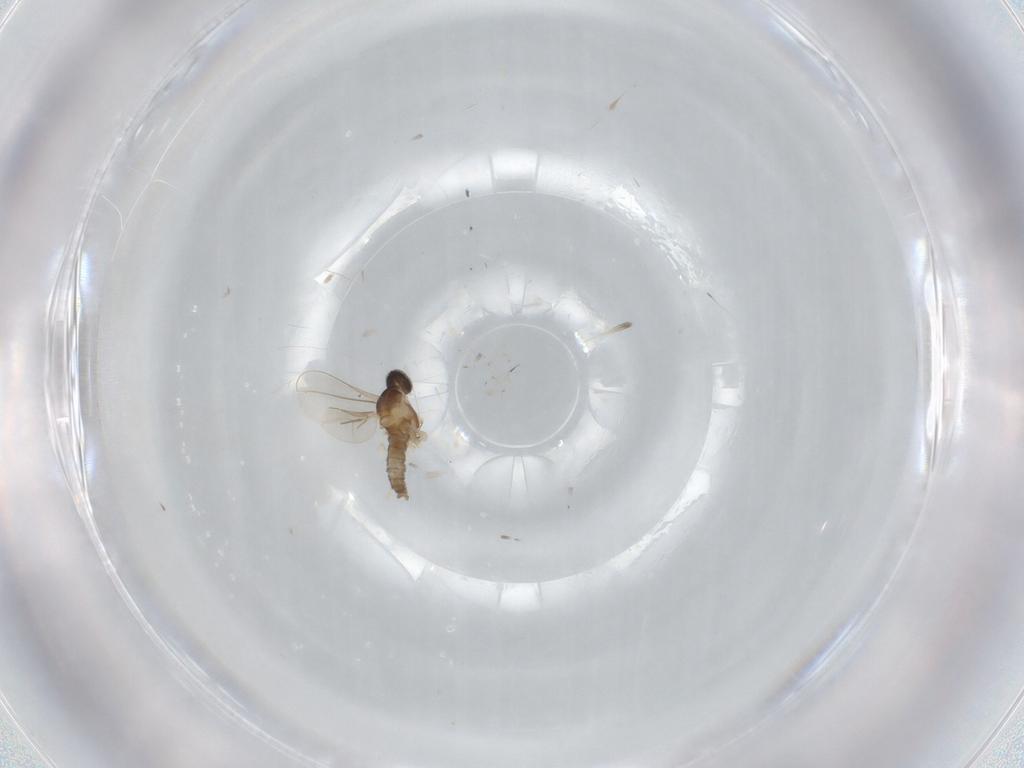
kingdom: Animalia
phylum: Arthropoda
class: Insecta
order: Diptera
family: Cecidomyiidae
